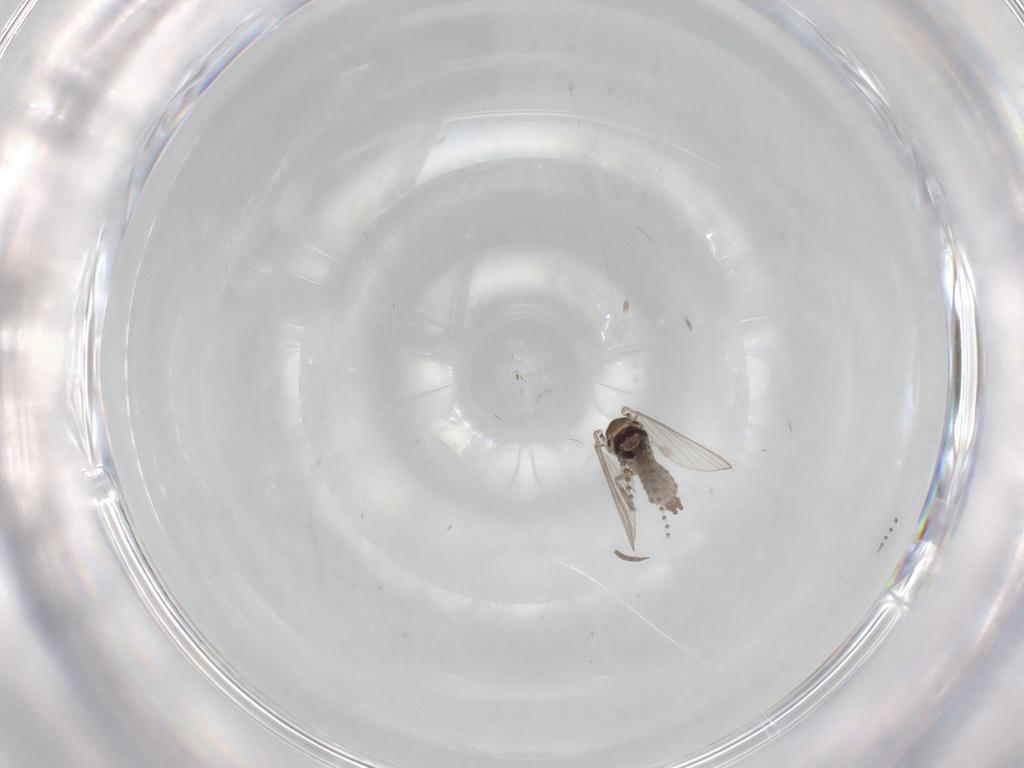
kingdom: Animalia
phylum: Arthropoda
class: Insecta
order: Diptera
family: Psychodidae
